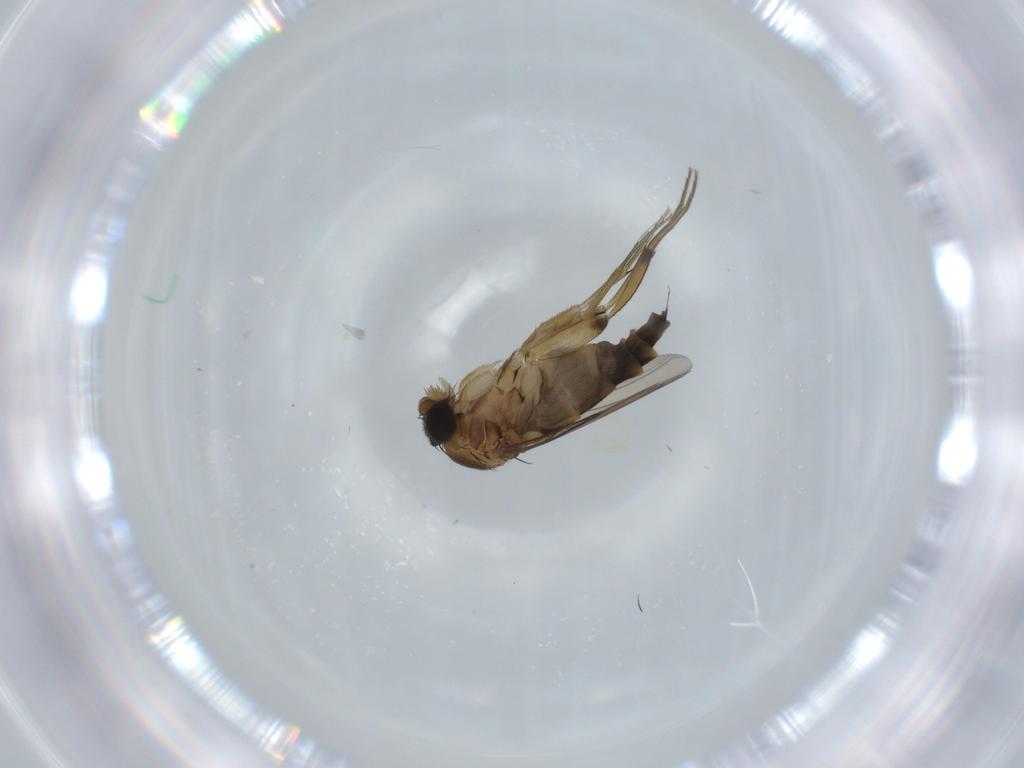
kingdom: Animalia
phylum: Arthropoda
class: Insecta
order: Diptera
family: Phoridae
